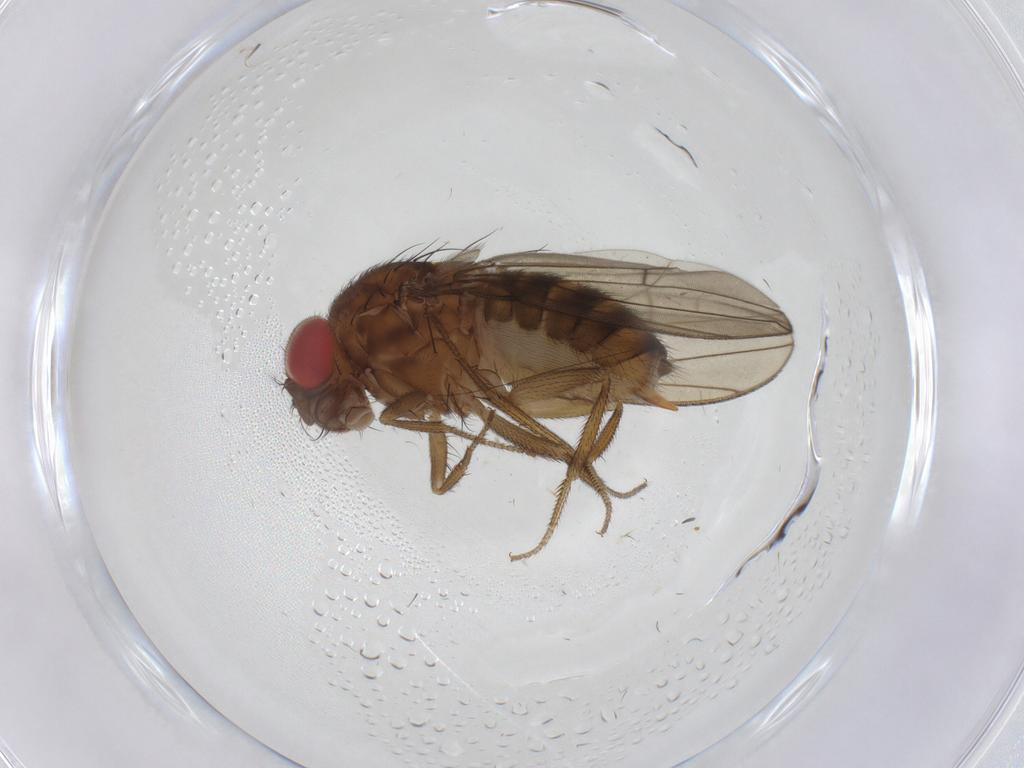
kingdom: Animalia
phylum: Arthropoda
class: Insecta
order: Diptera
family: Drosophilidae
